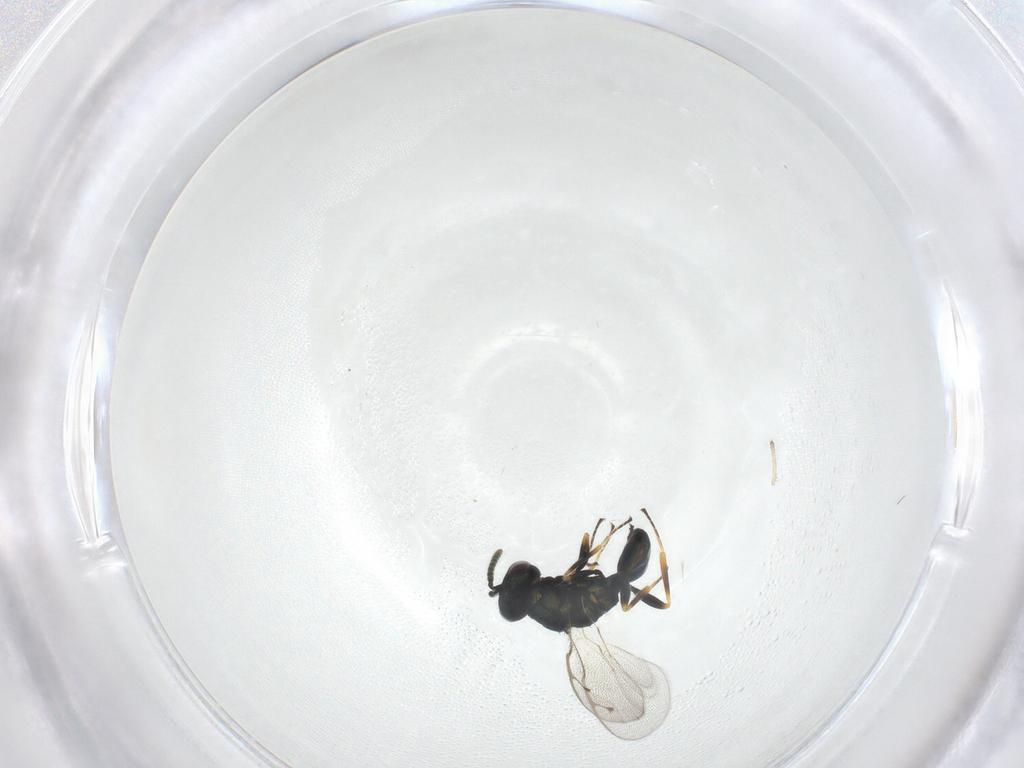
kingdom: Animalia
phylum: Arthropoda
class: Insecta
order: Hymenoptera
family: Pteromalidae
